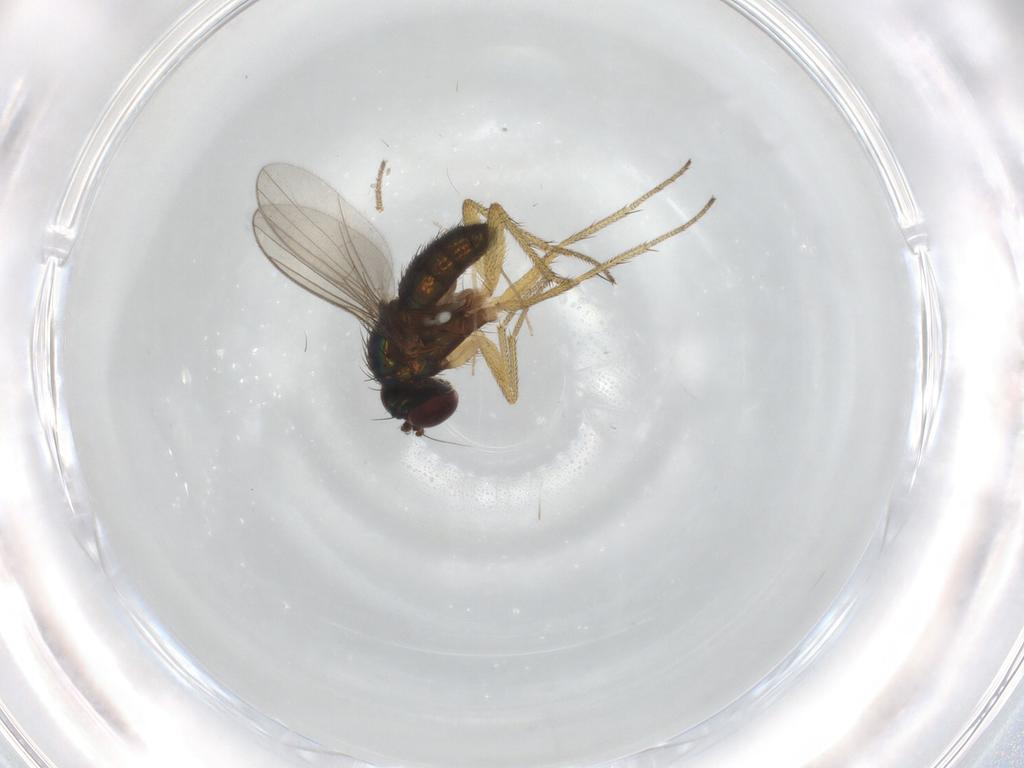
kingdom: Animalia
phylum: Arthropoda
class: Insecta
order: Diptera
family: Dolichopodidae
